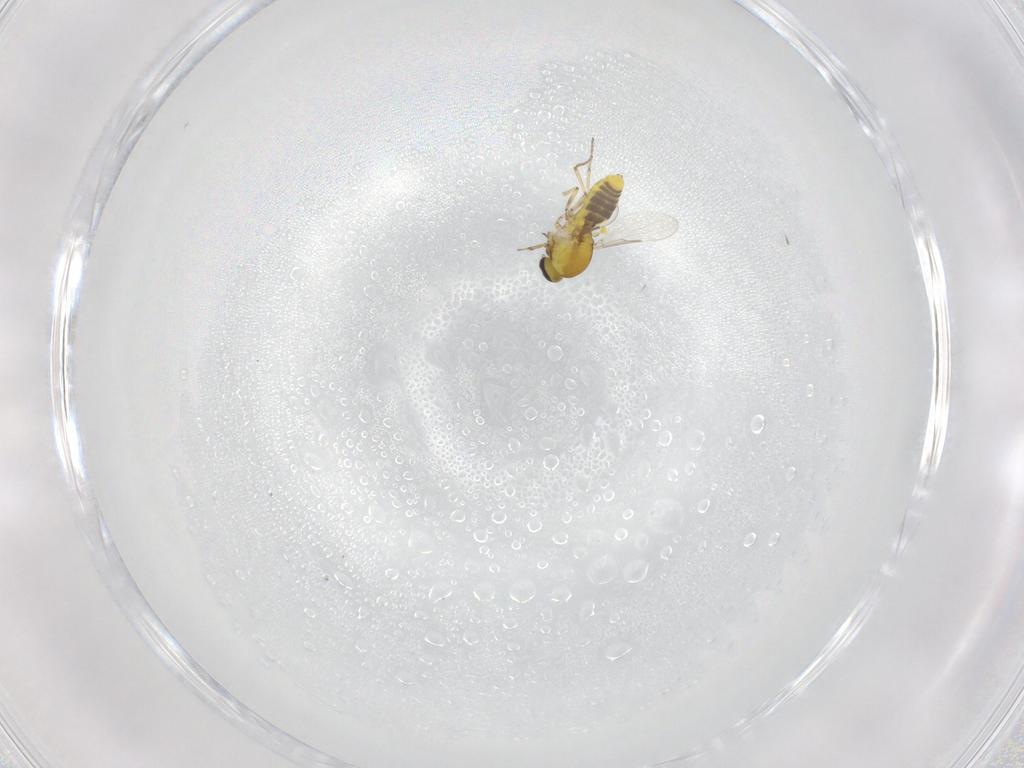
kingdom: Animalia
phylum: Arthropoda
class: Insecta
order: Diptera
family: Ceratopogonidae
